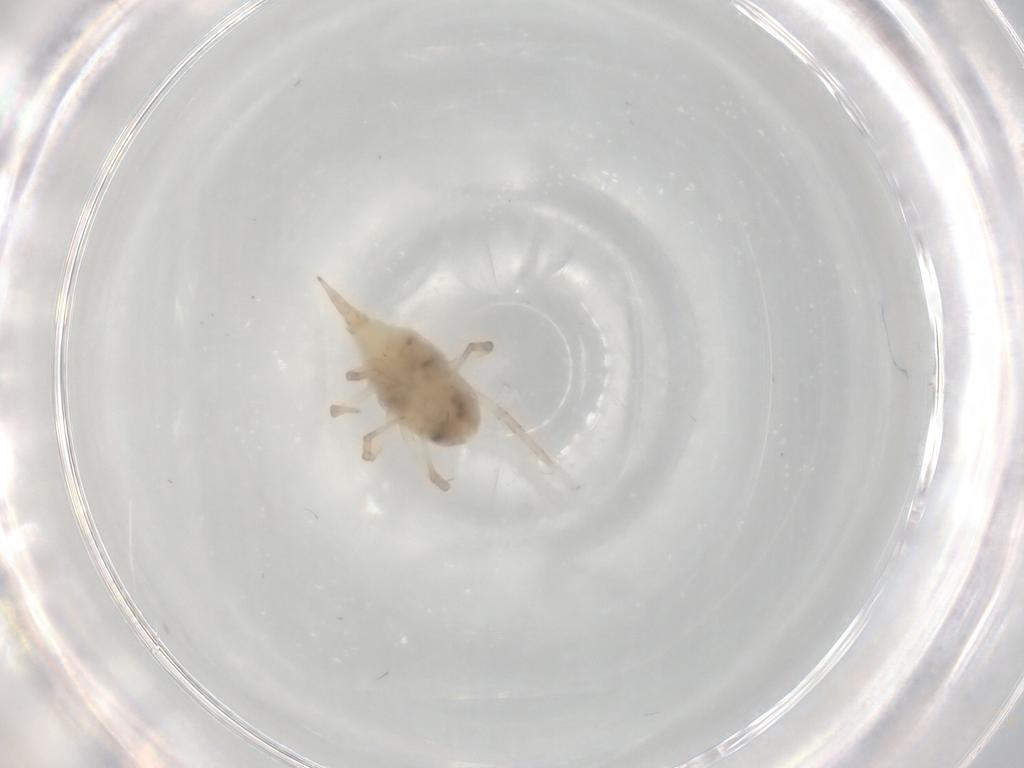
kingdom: Animalia
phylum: Arthropoda
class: Arachnida
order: Trombidiformes
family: Bdellidae
